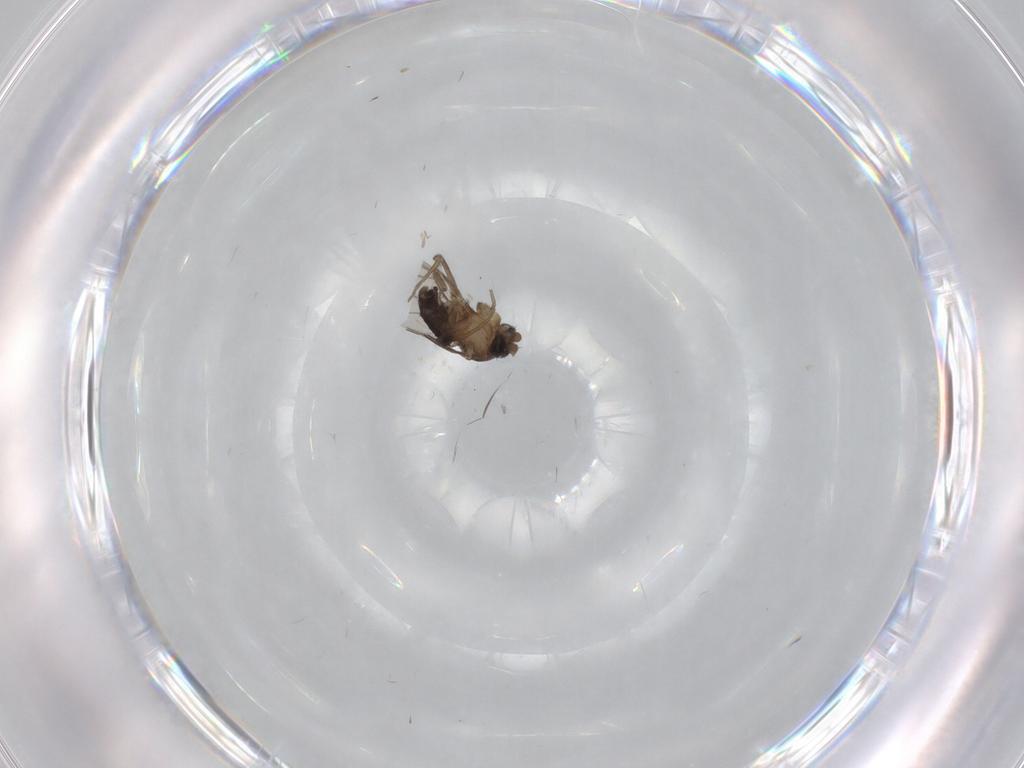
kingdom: Animalia
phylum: Arthropoda
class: Insecta
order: Diptera
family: Phoridae
